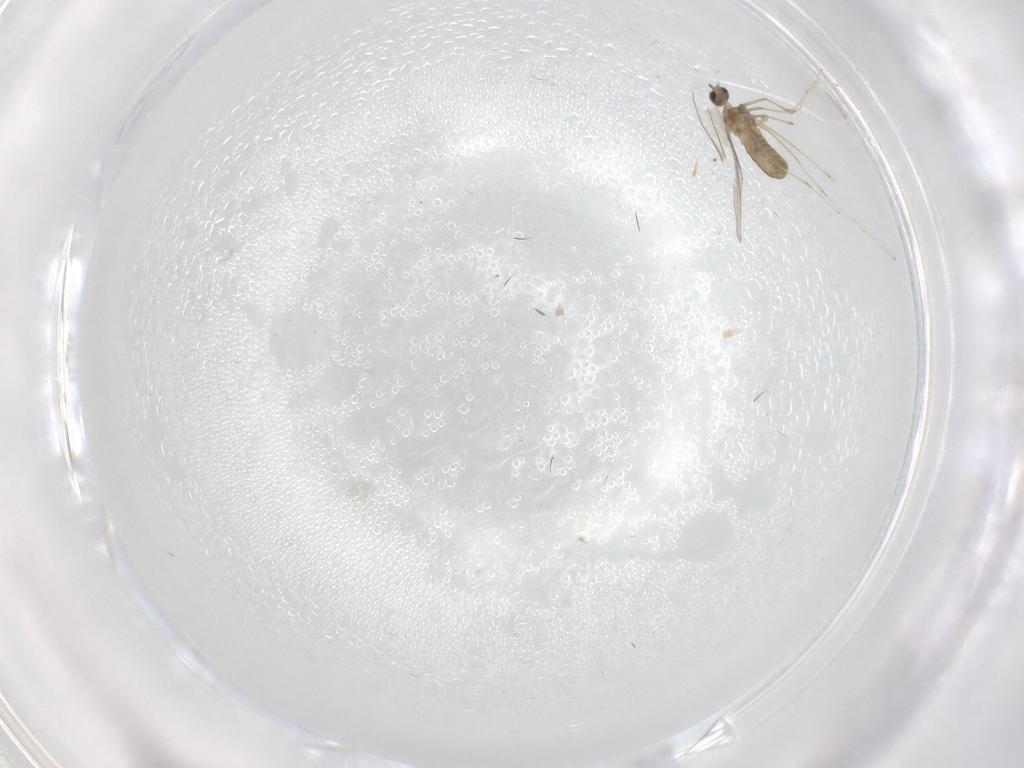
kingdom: Animalia
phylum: Arthropoda
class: Insecta
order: Diptera
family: Cecidomyiidae
